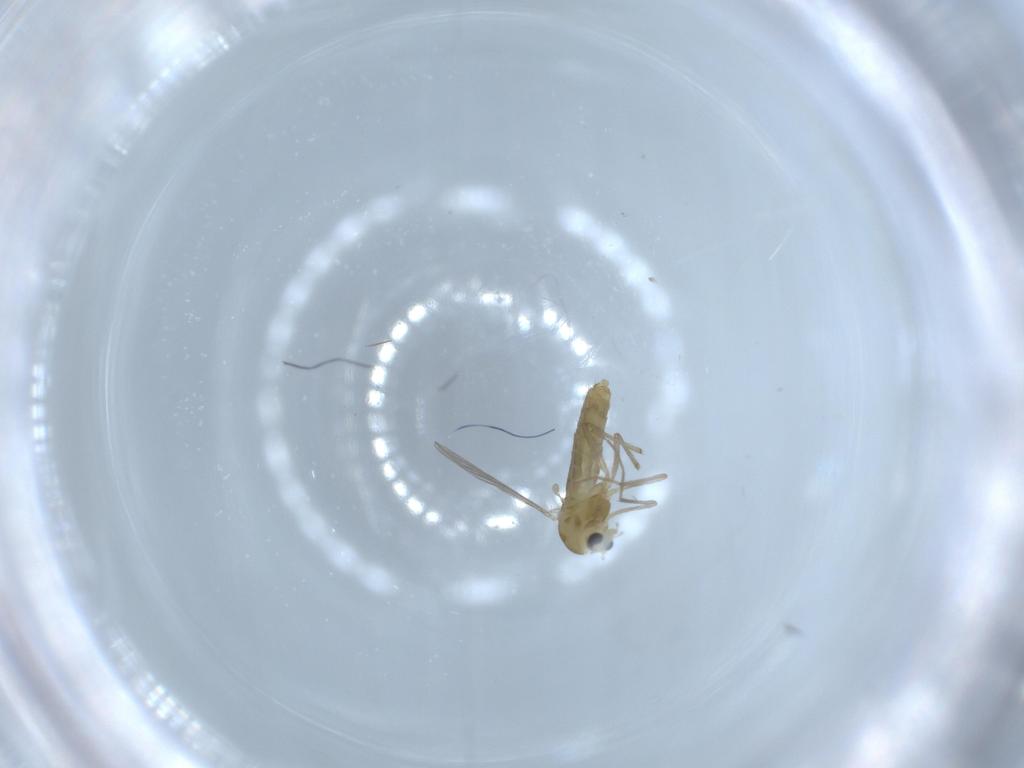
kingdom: Animalia
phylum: Arthropoda
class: Insecta
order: Diptera
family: Chironomidae
